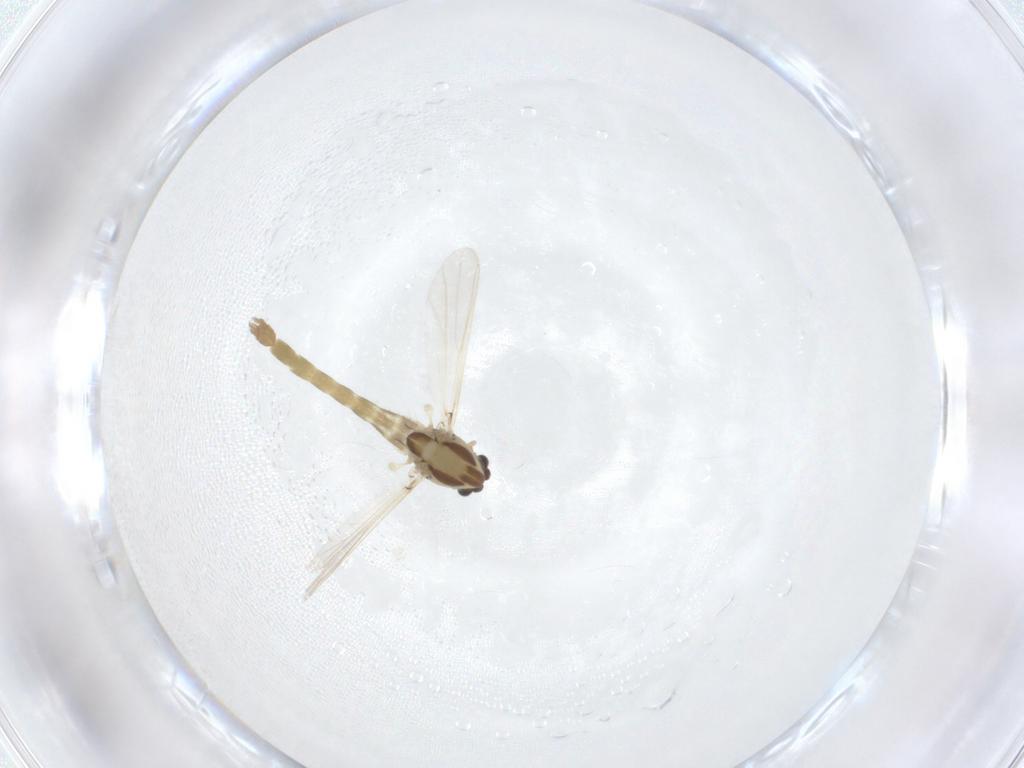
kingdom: Animalia
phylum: Arthropoda
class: Insecta
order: Diptera
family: Chironomidae
